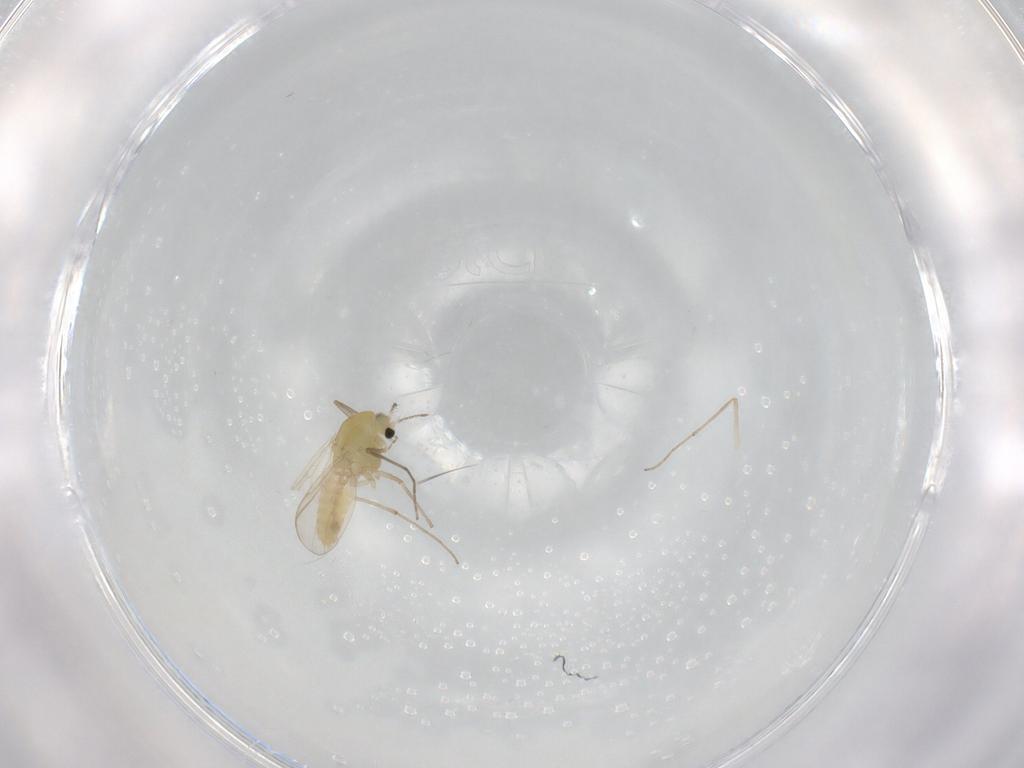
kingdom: Animalia
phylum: Arthropoda
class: Insecta
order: Diptera
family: Chironomidae
